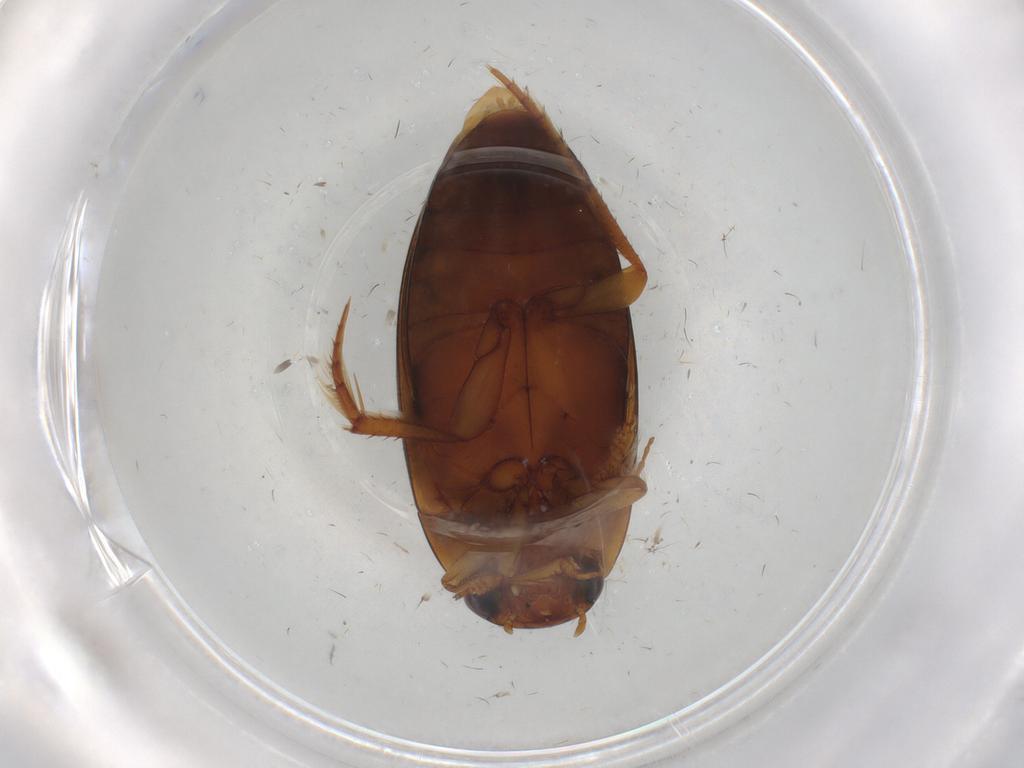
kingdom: Animalia
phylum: Arthropoda
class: Insecta
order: Coleoptera
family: Dytiscidae
